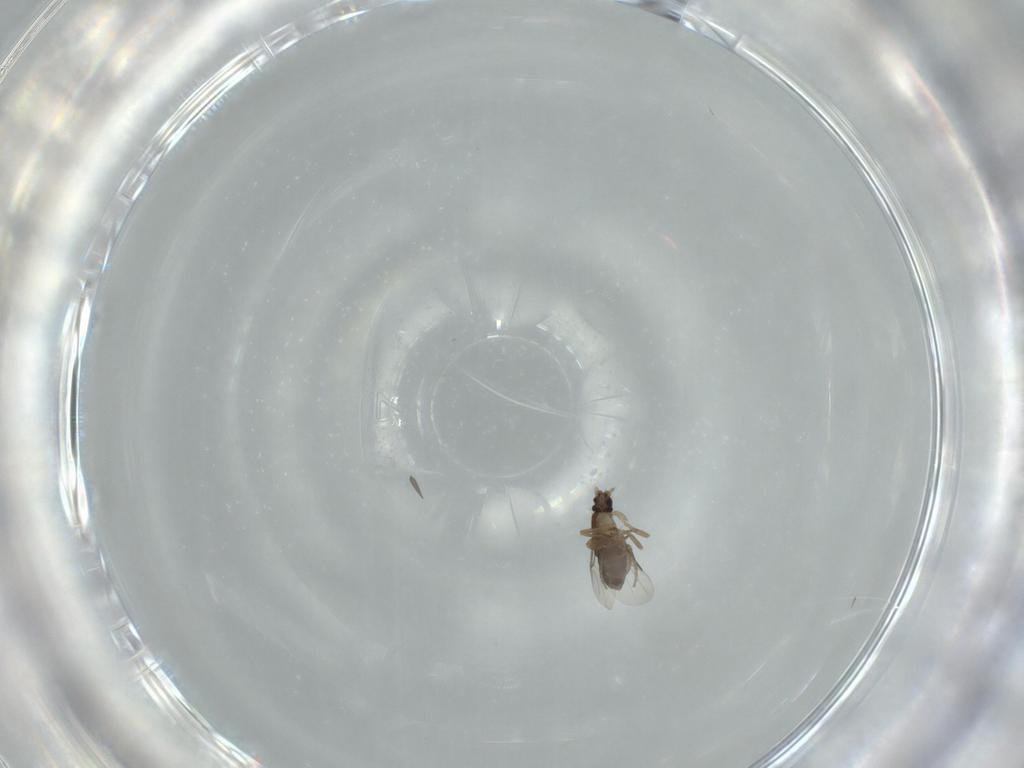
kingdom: Animalia
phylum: Arthropoda
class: Insecta
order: Diptera
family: Phoridae
